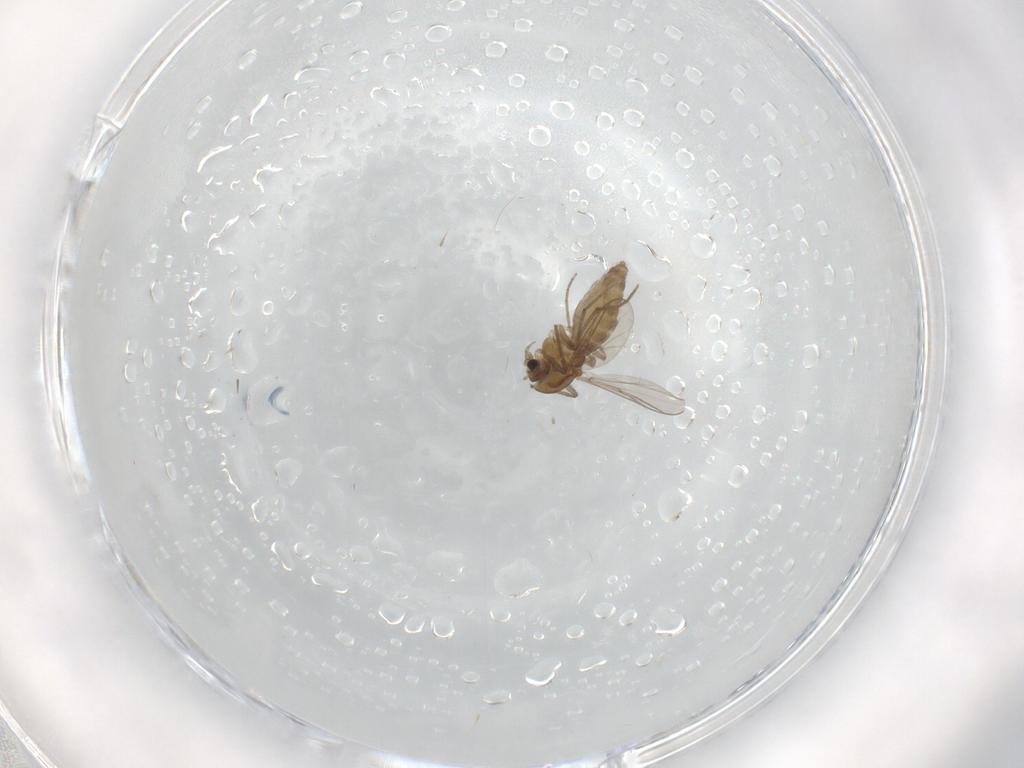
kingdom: Animalia
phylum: Arthropoda
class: Insecta
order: Diptera
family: Chironomidae
